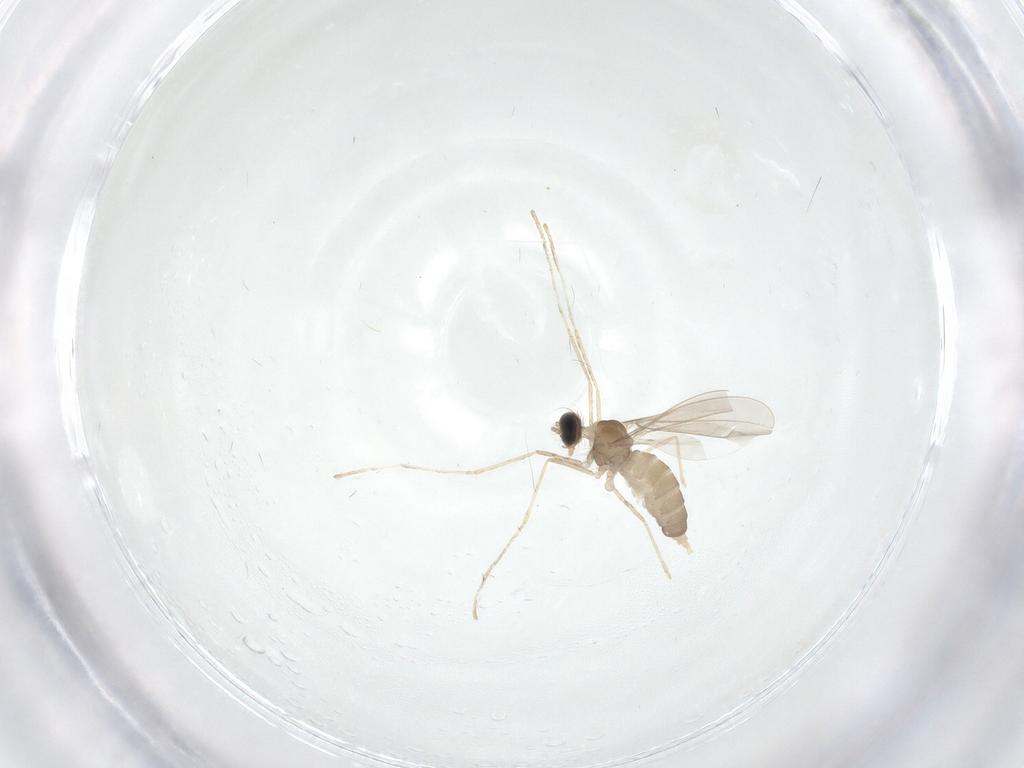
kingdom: Animalia
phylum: Arthropoda
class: Insecta
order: Diptera
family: Cecidomyiidae
